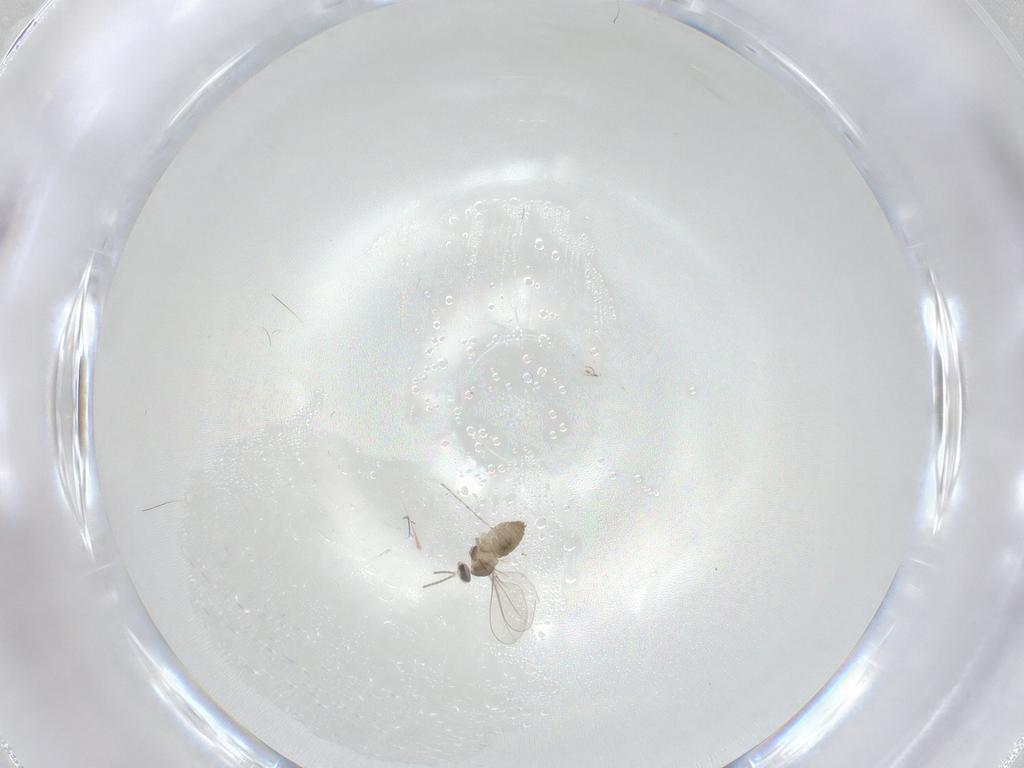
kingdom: Animalia
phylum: Arthropoda
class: Insecta
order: Diptera
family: Cecidomyiidae
